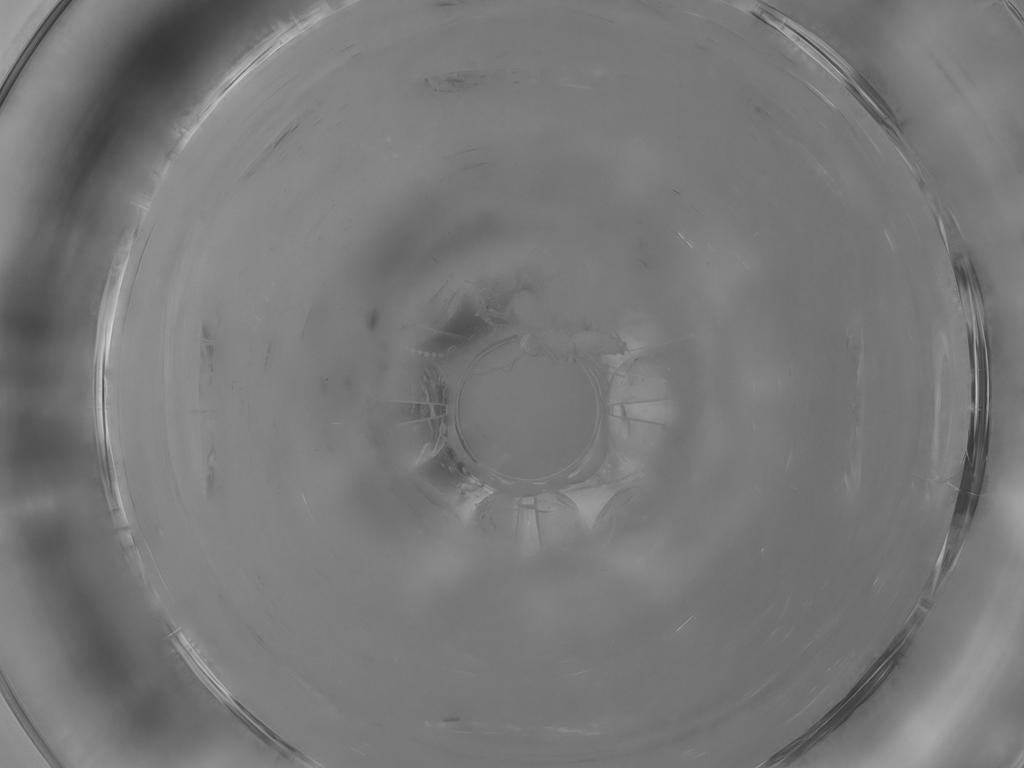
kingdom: Animalia
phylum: Arthropoda
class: Insecta
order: Diptera
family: Cecidomyiidae
